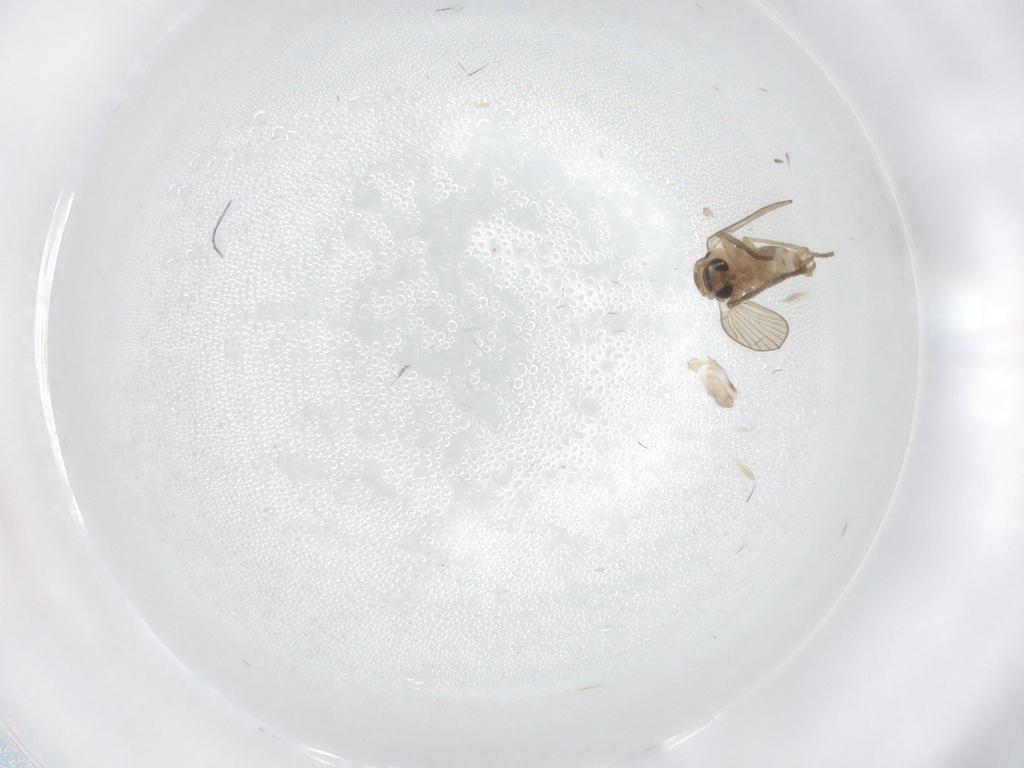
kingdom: Animalia
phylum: Arthropoda
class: Insecta
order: Diptera
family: Psychodidae
